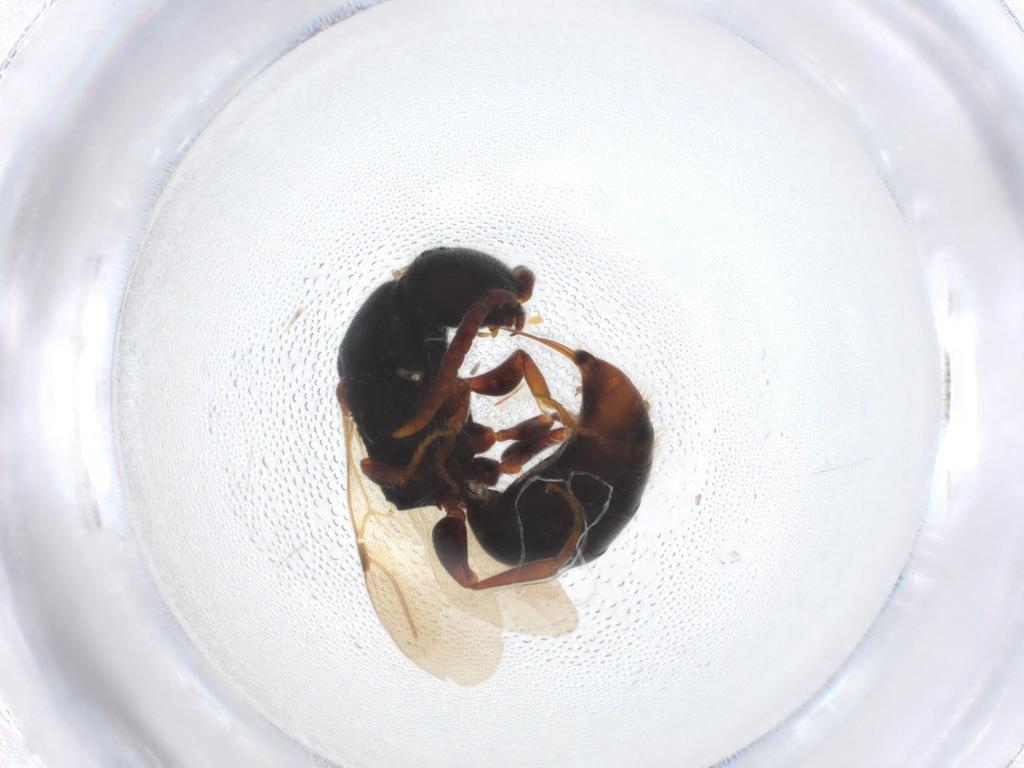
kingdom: Animalia
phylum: Arthropoda
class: Insecta
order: Hymenoptera
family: Bethylidae
